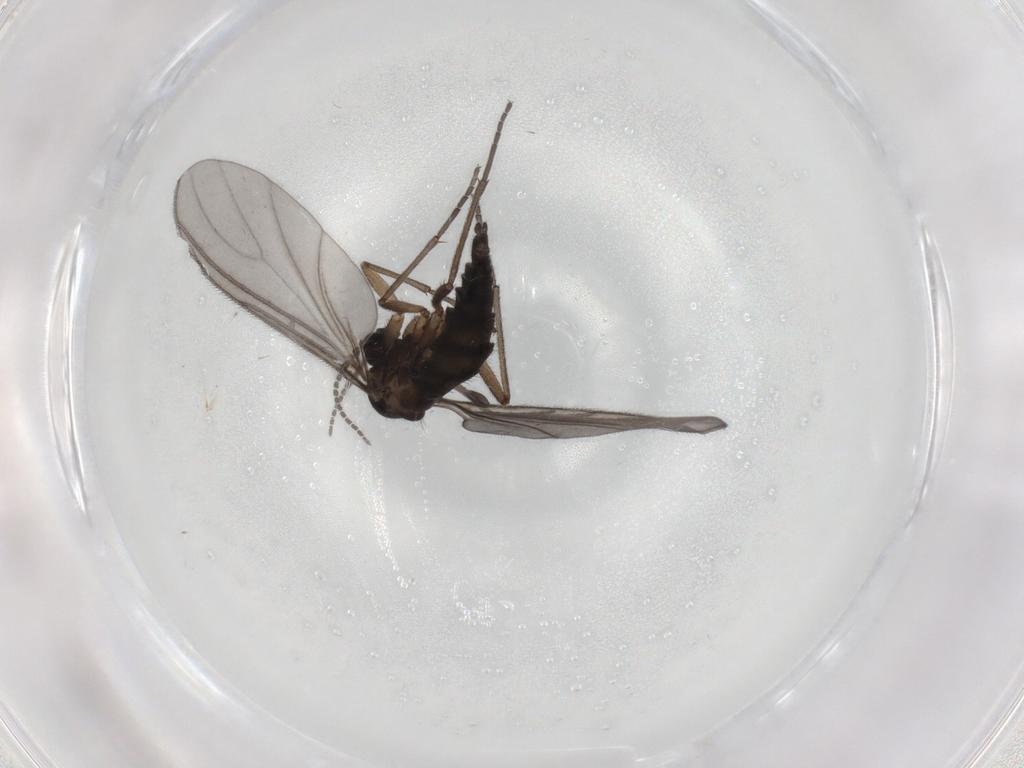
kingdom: Animalia
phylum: Arthropoda
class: Insecta
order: Diptera
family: Sciaridae
